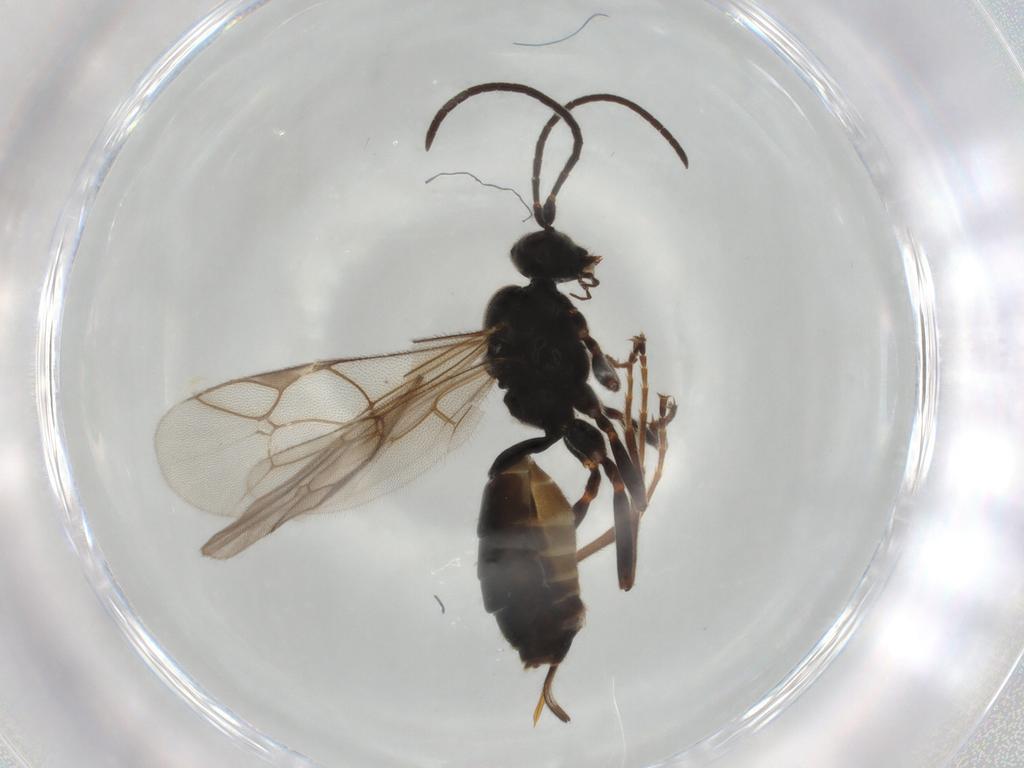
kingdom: Animalia
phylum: Arthropoda
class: Insecta
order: Hymenoptera
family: Ichneumonidae
